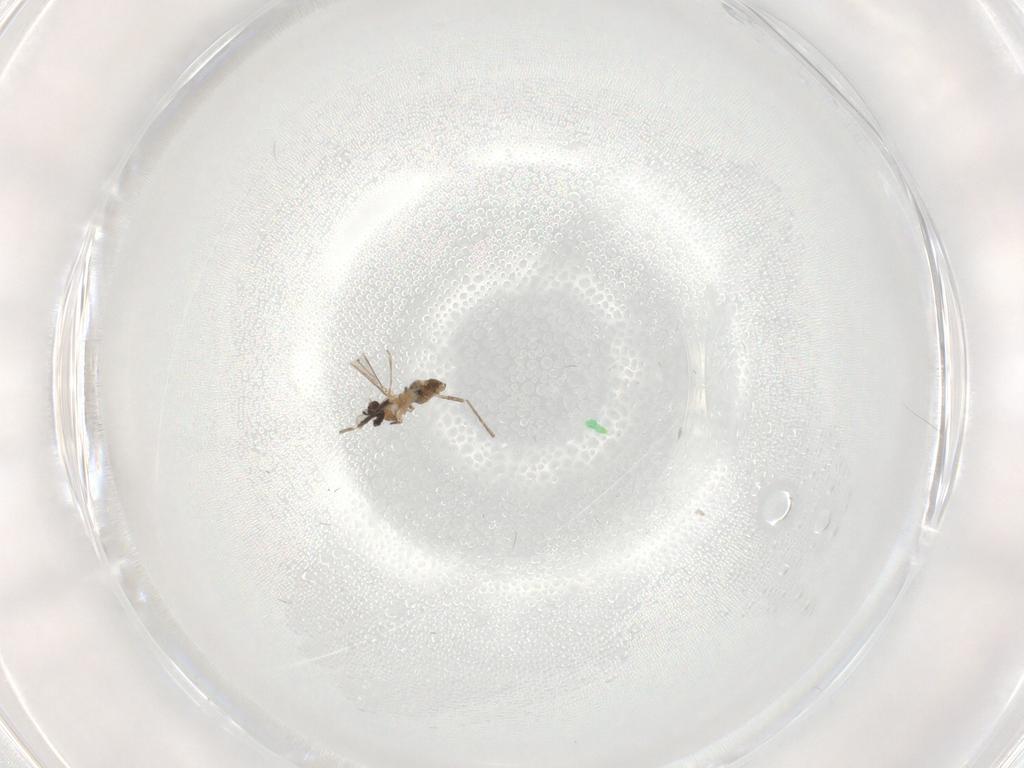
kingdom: Animalia
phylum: Arthropoda
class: Insecta
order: Diptera
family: Cecidomyiidae
